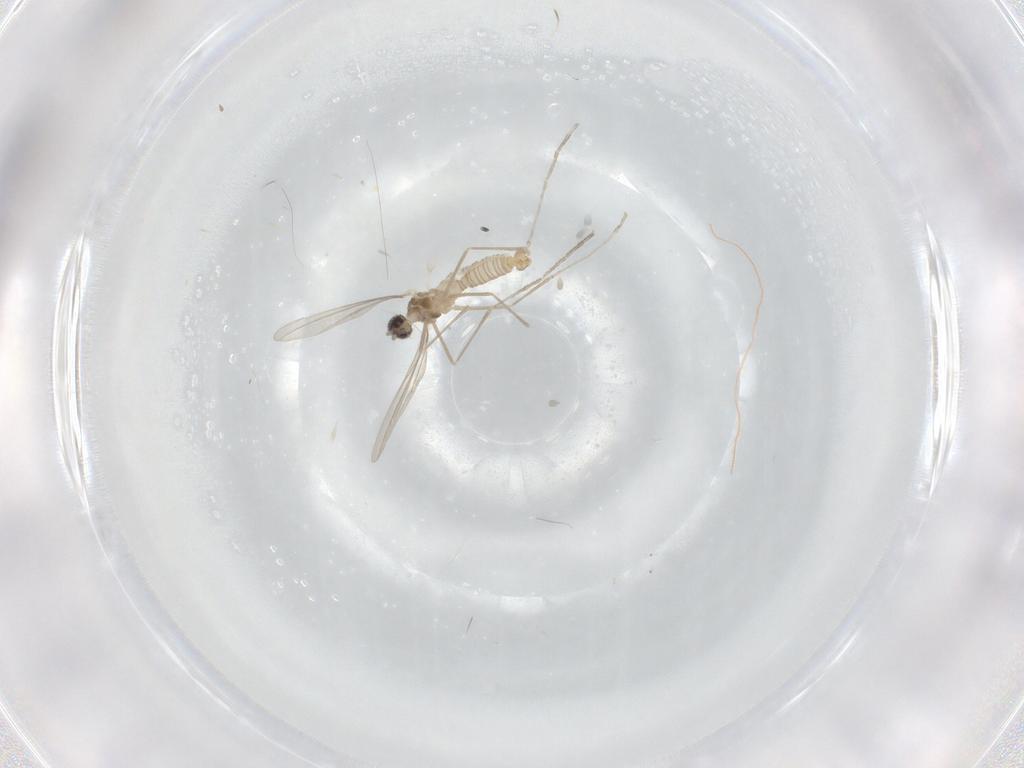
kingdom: Animalia
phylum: Arthropoda
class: Insecta
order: Diptera
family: Cecidomyiidae
